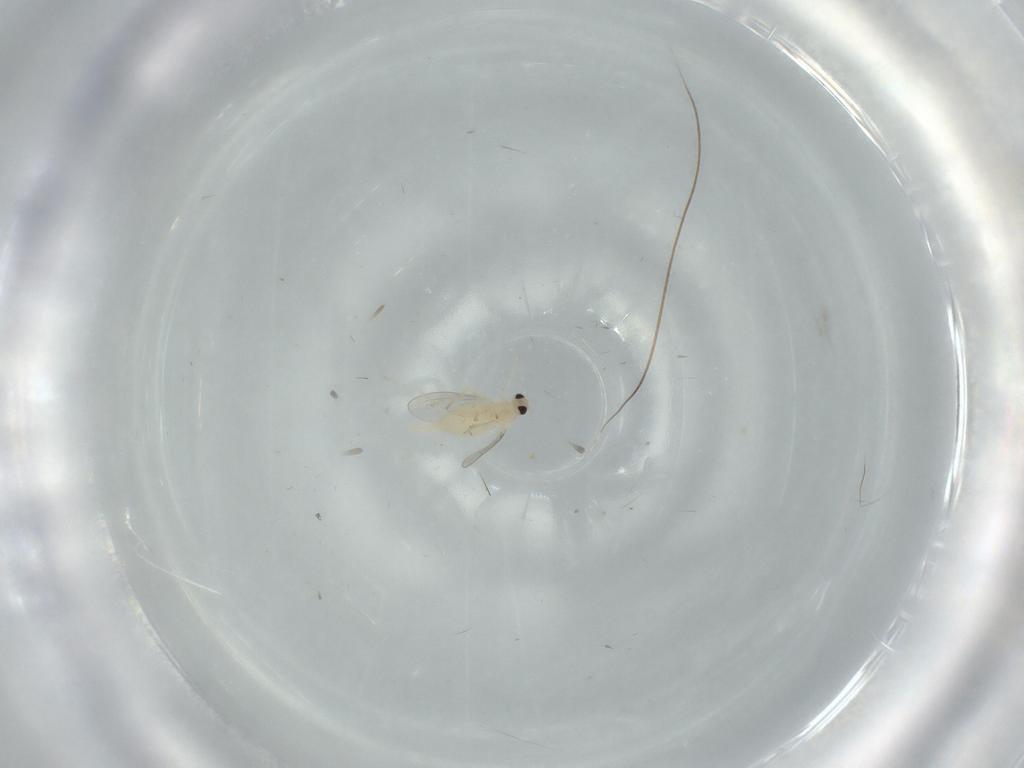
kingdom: Animalia
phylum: Arthropoda
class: Insecta
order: Diptera
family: Cecidomyiidae
